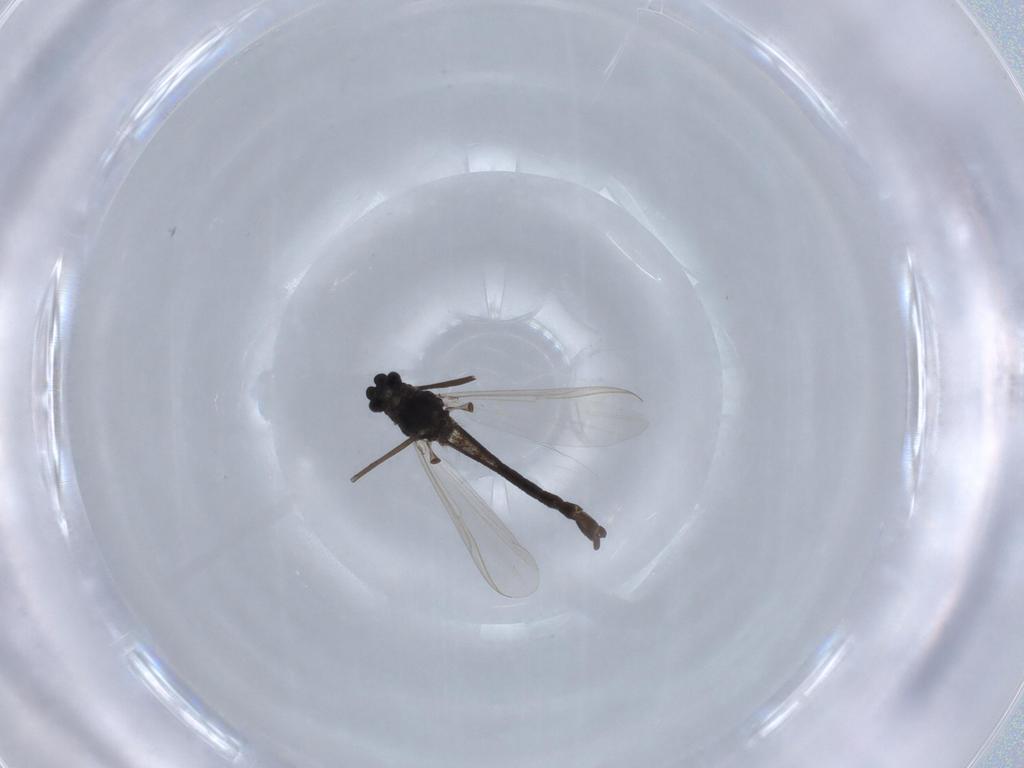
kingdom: Animalia
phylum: Arthropoda
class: Insecta
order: Diptera
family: Chironomidae
